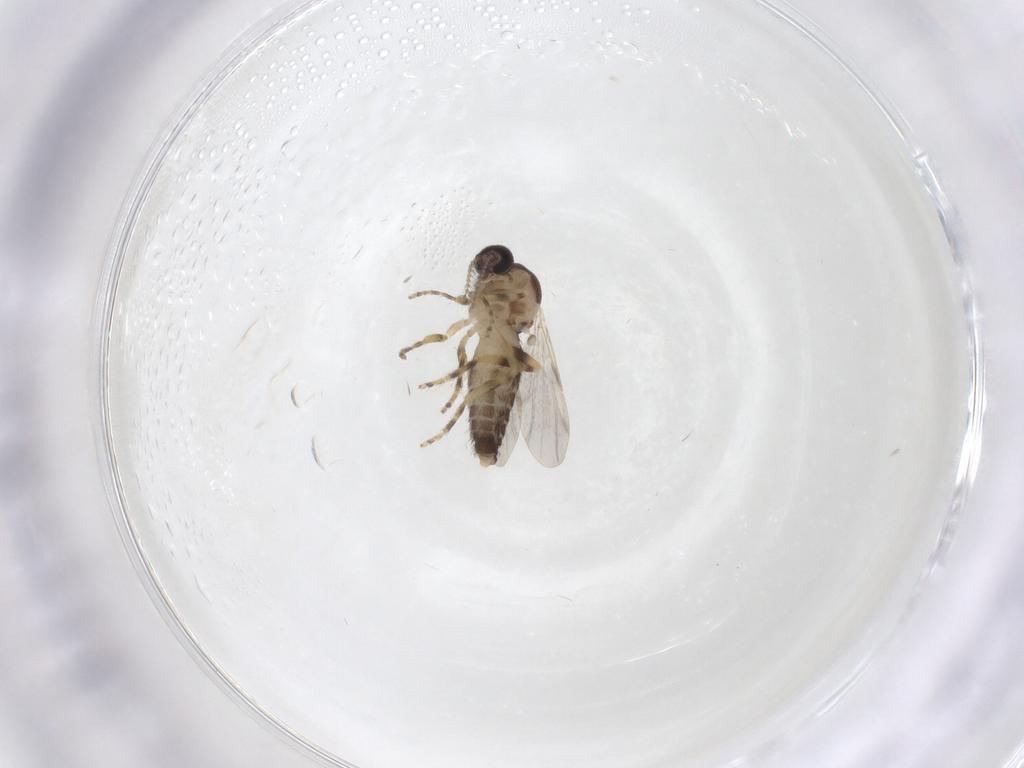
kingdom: Animalia
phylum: Arthropoda
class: Insecta
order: Diptera
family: Ceratopogonidae
